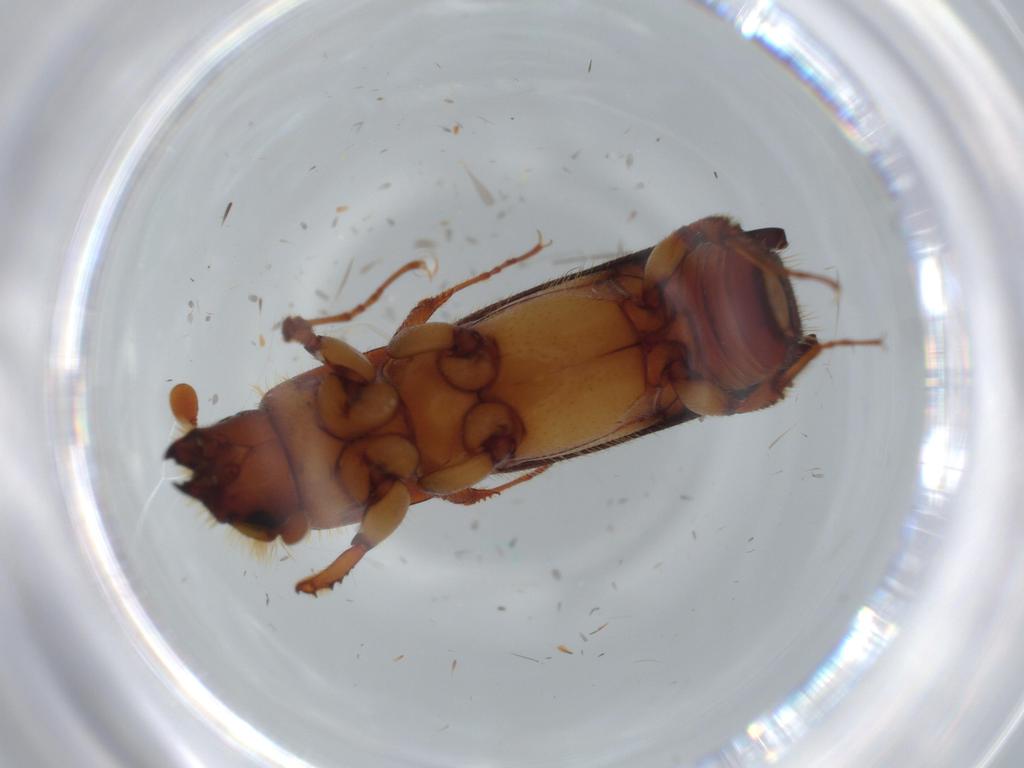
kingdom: Animalia
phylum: Arthropoda
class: Insecta
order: Coleoptera
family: Curculionidae
